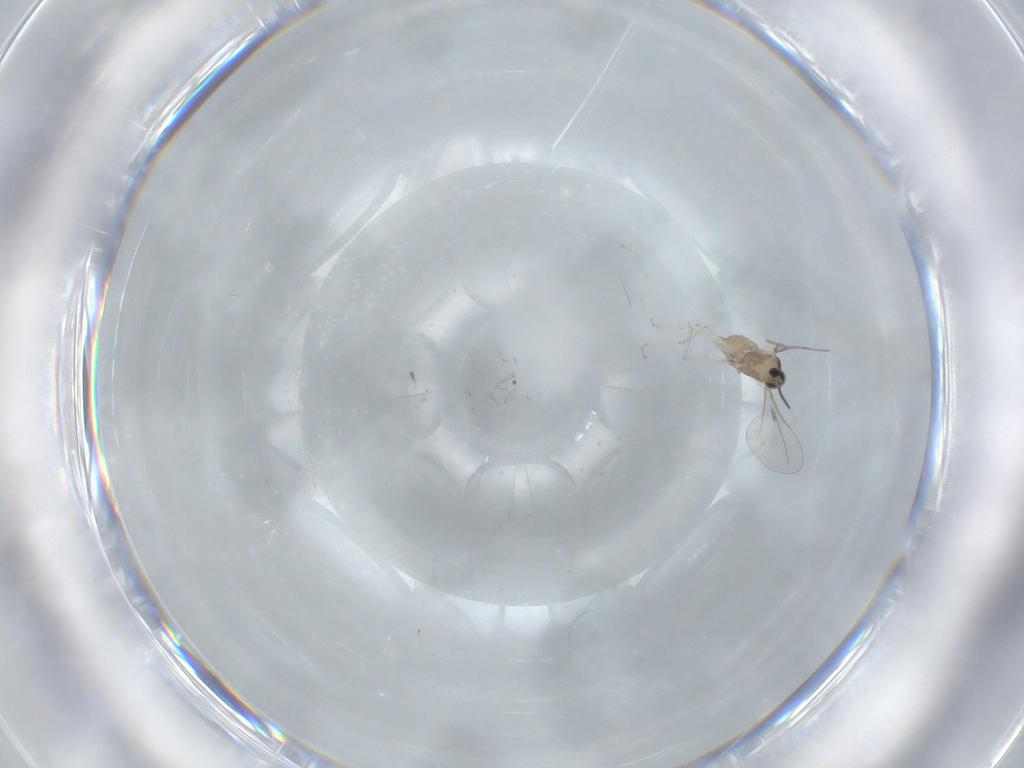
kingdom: Animalia
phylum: Arthropoda
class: Insecta
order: Diptera
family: Cecidomyiidae
